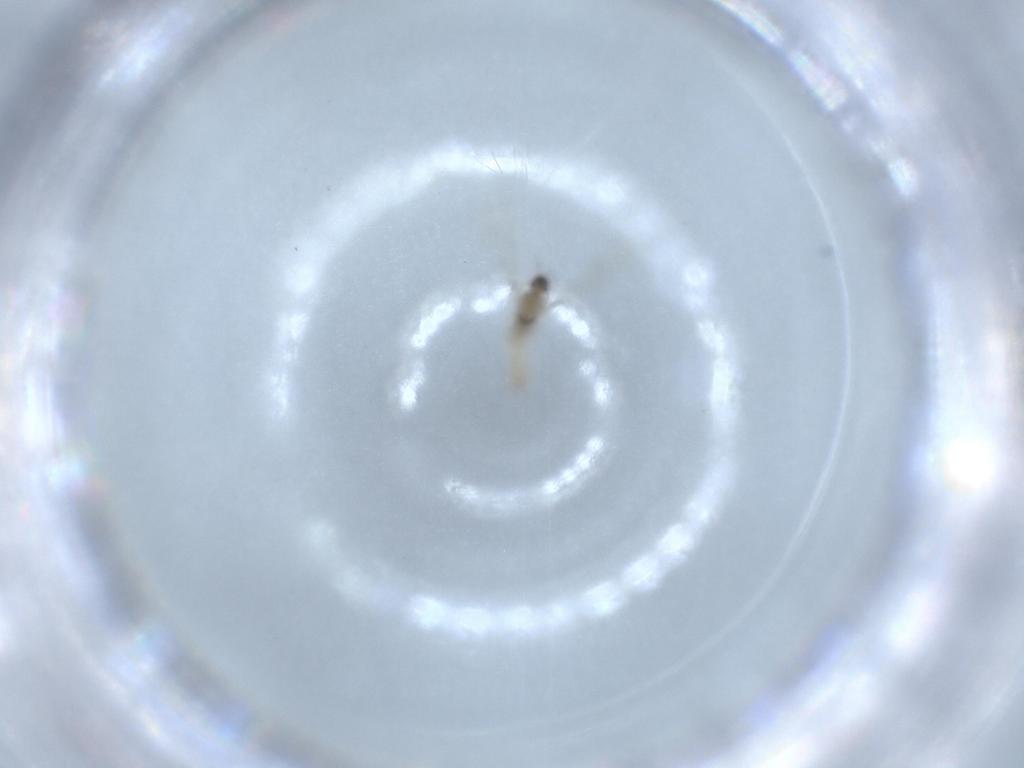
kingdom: Animalia
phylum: Arthropoda
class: Insecta
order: Diptera
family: Cecidomyiidae
